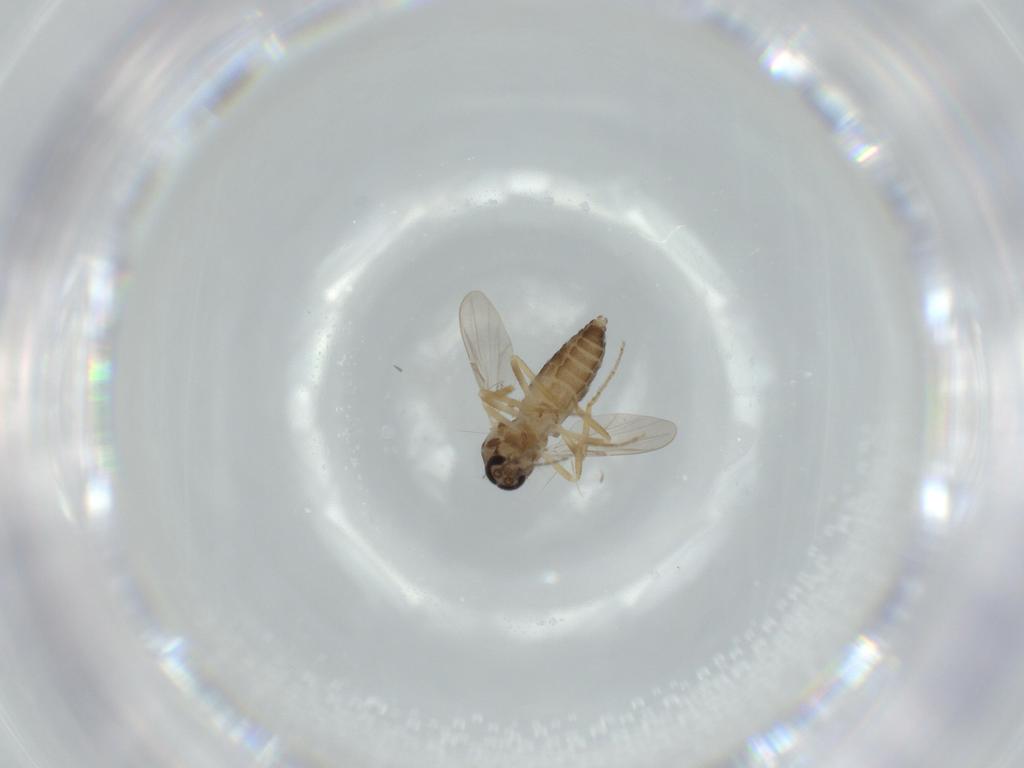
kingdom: Animalia
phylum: Arthropoda
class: Insecta
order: Diptera
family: Ceratopogonidae
